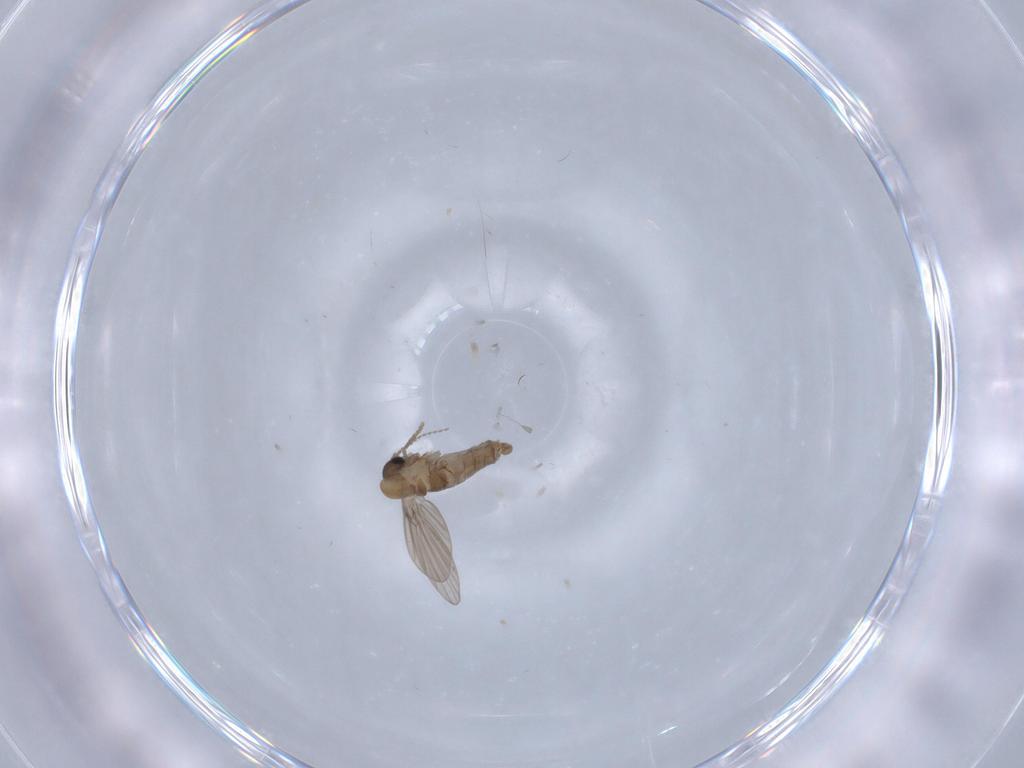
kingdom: Animalia
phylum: Arthropoda
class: Insecta
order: Diptera
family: Psychodidae
